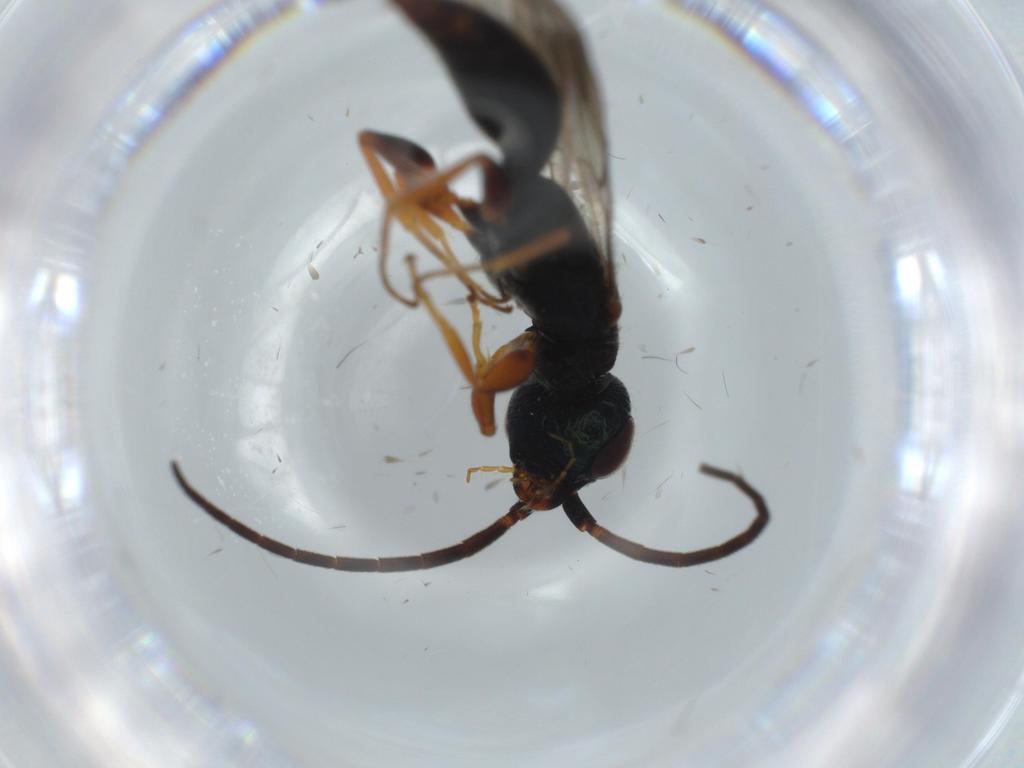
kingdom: Animalia
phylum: Arthropoda
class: Insecta
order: Hymenoptera
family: Bethylidae
